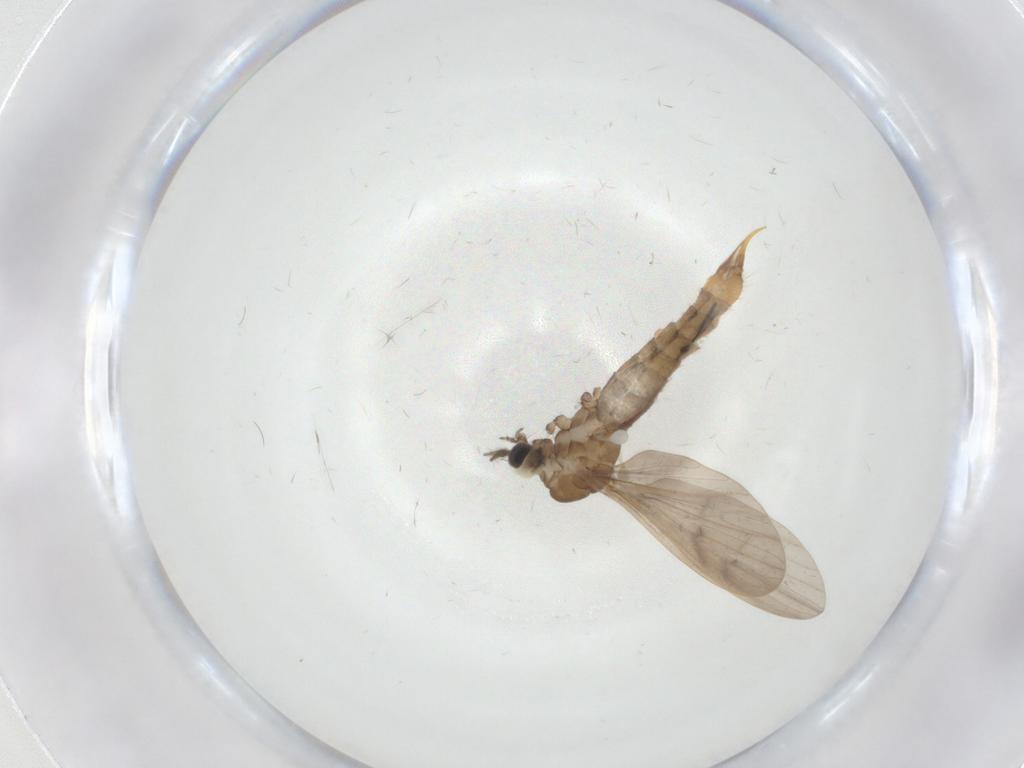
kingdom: Animalia
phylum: Arthropoda
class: Insecta
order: Diptera
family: Limoniidae
